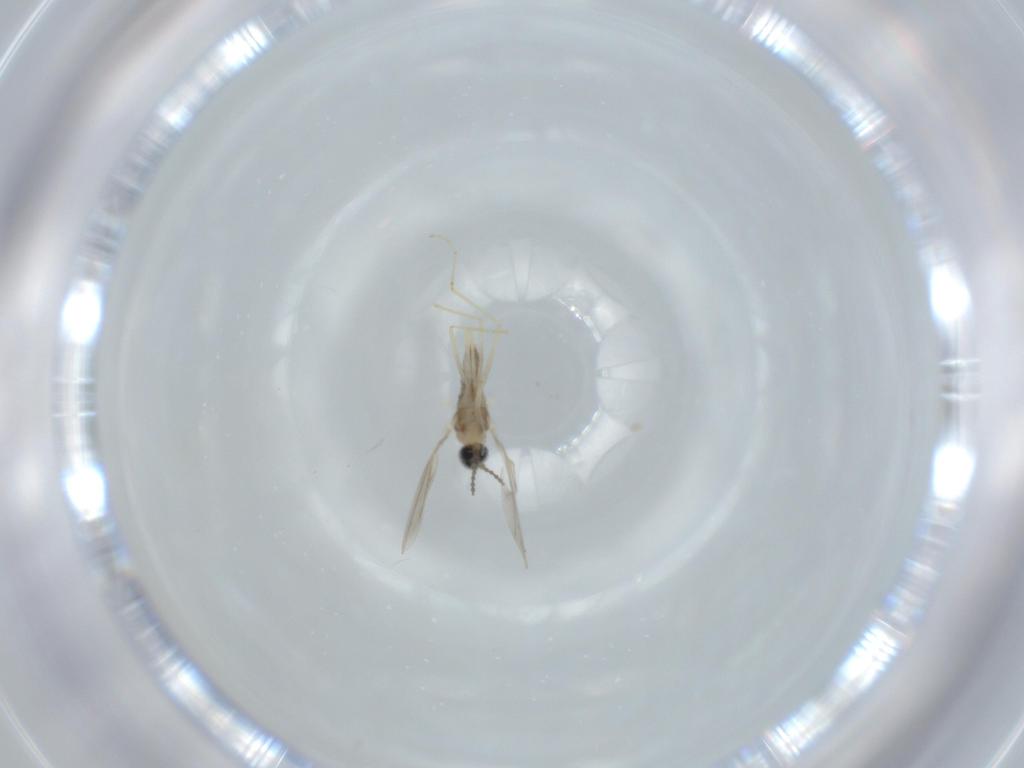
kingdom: Animalia
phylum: Arthropoda
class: Insecta
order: Diptera
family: Cecidomyiidae
